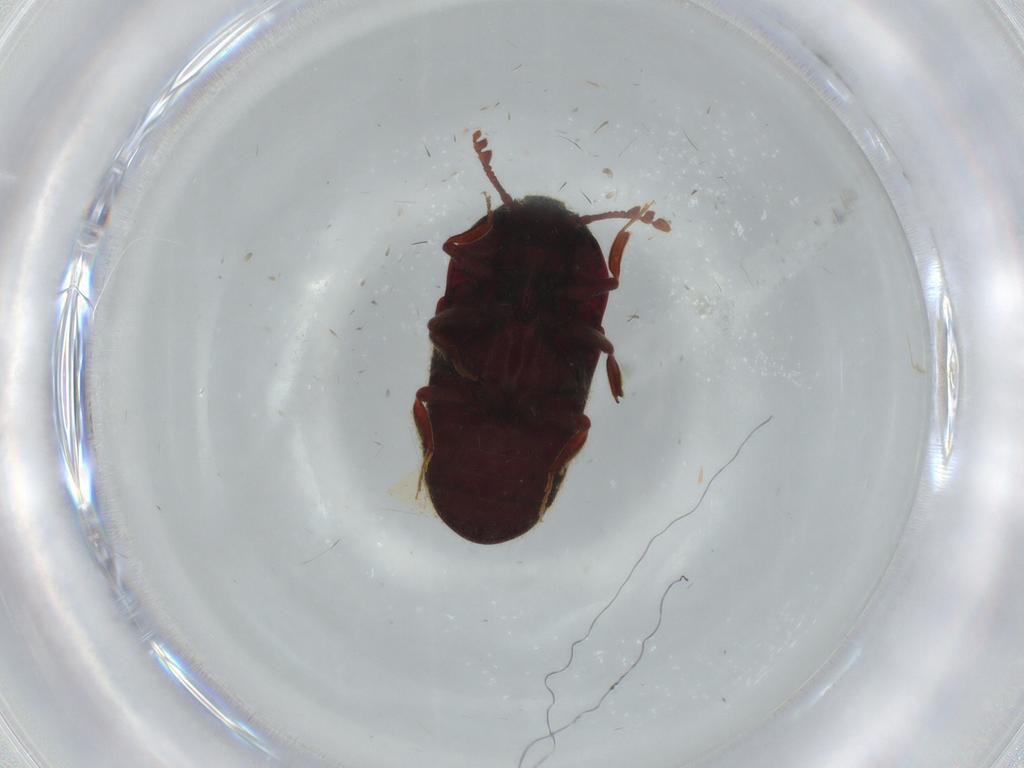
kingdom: Animalia
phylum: Arthropoda
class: Insecta
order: Coleoptera
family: Throscidae
